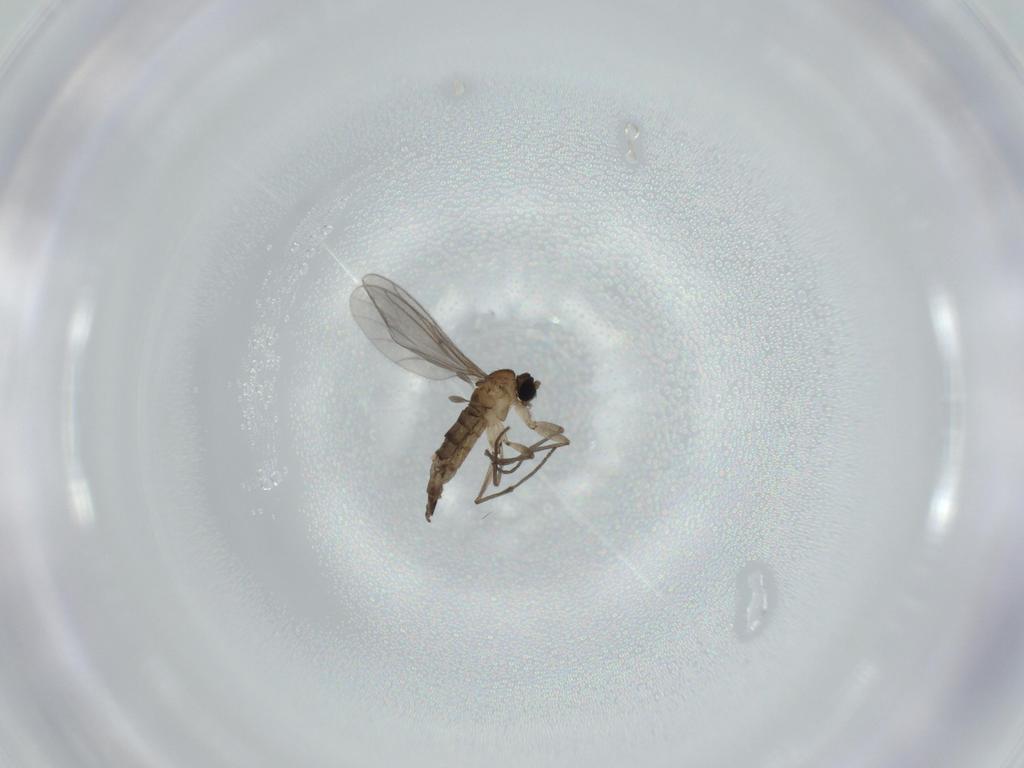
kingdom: Animalia
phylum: Arthropoda
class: Insecta
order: Diptera
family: Sciaridae
